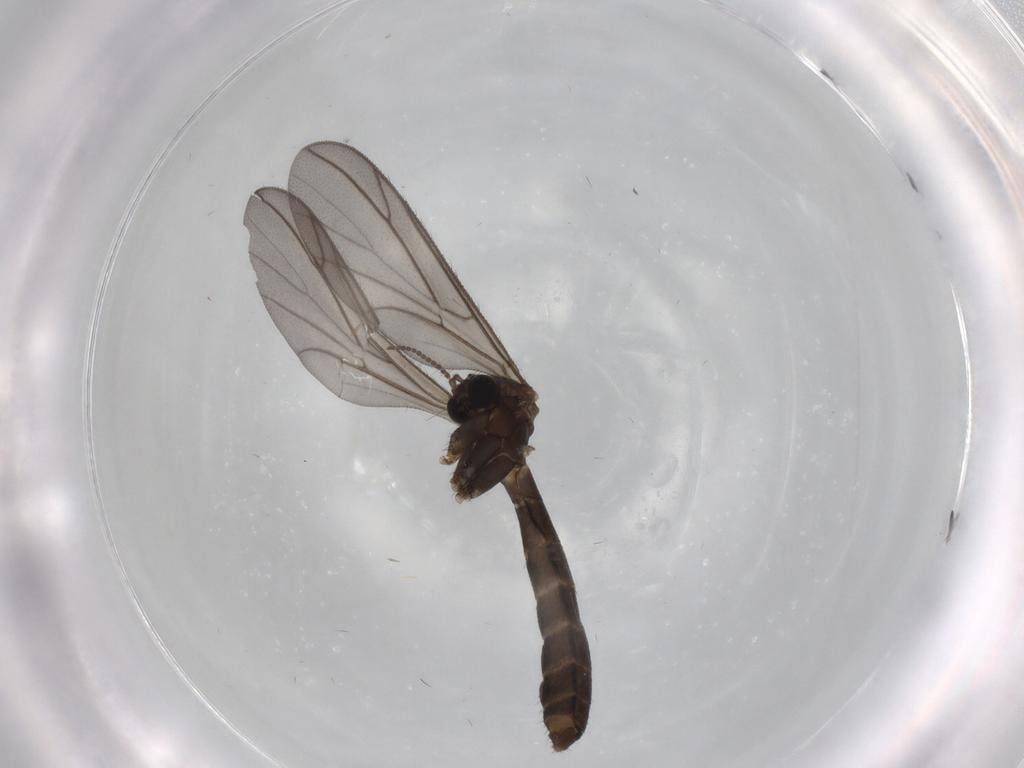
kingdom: Animalia
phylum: Arthropoda
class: Insecta
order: Diptera
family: Keroplatidae
